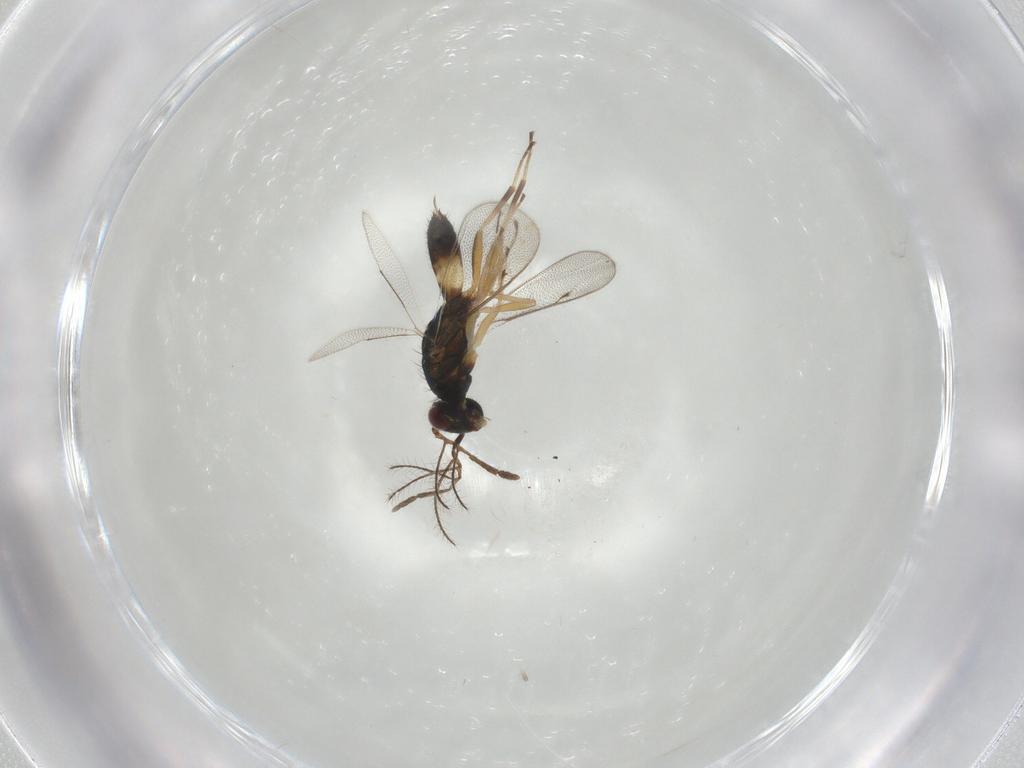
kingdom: Animalia
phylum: Arthropoda
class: Insecta
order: Hymenoptera
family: Eulophidae
